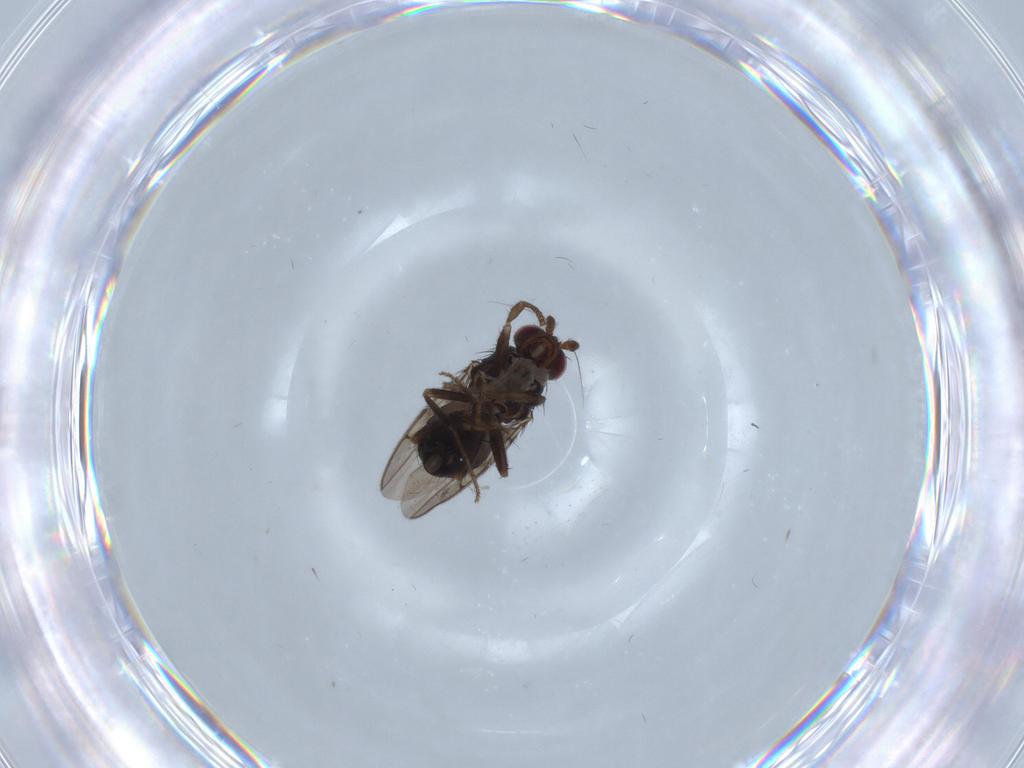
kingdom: Animalia
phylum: Arthropoda
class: Insecta
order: Diptera
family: Sphaeroceridae
